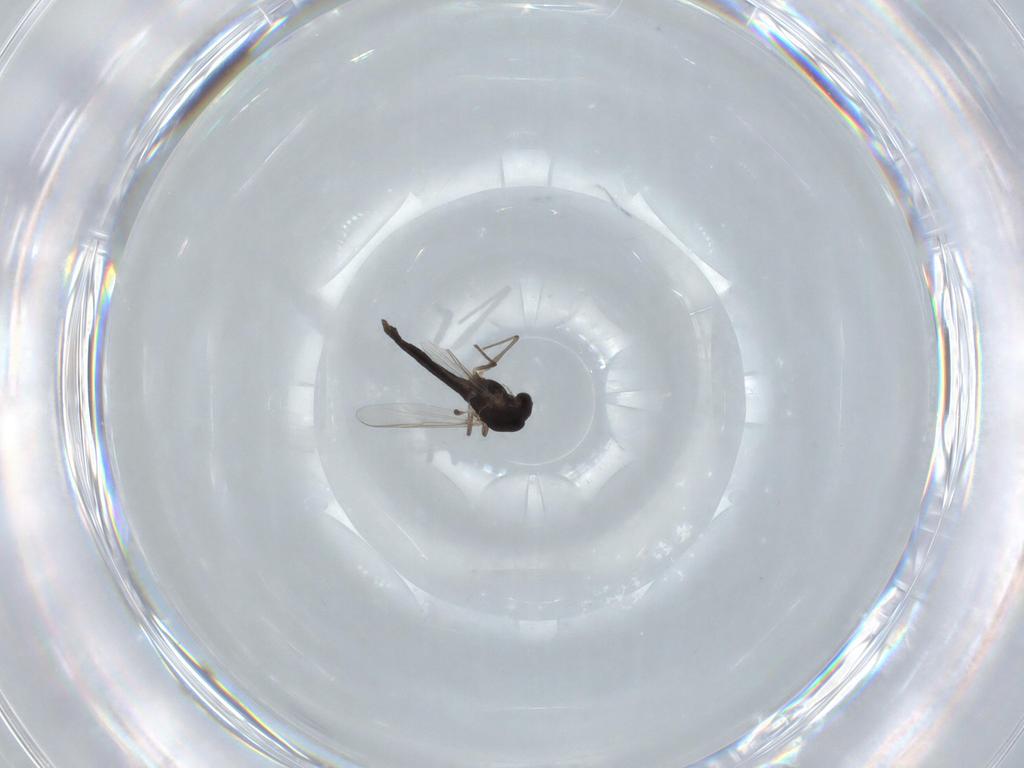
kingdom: Animalia
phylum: Arthropoda
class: Insecta
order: Diptera
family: Chironomidae
